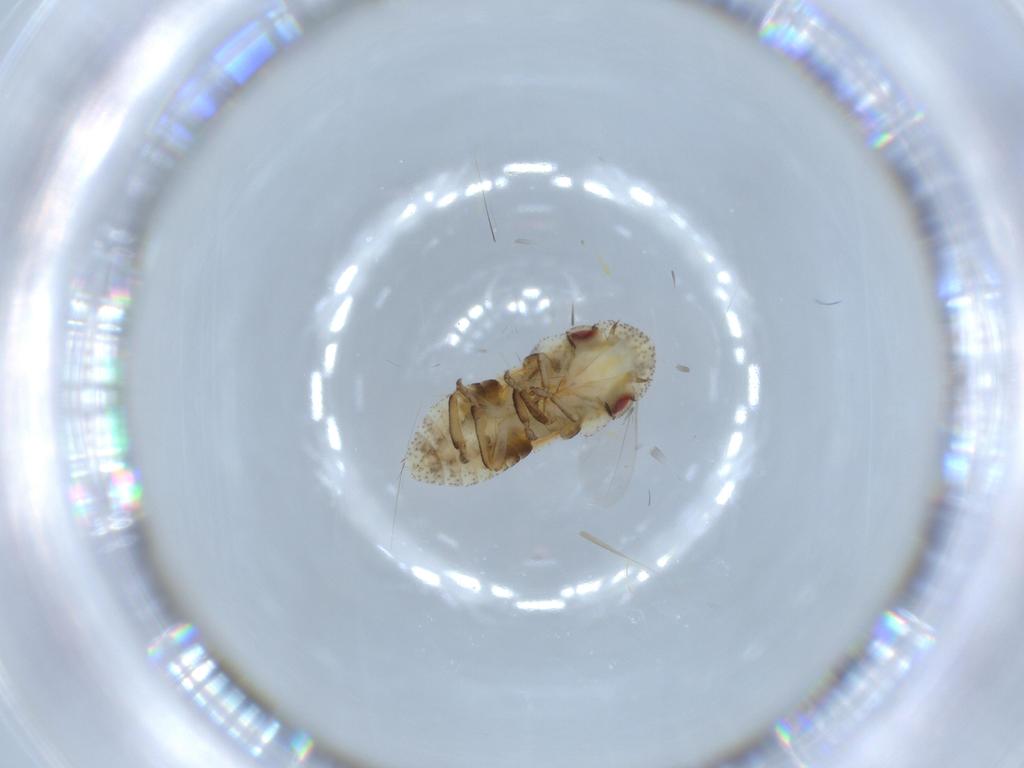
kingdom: Animalia
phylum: Arthropoda
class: Insecta
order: Hemiptera
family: Cicadellidae
